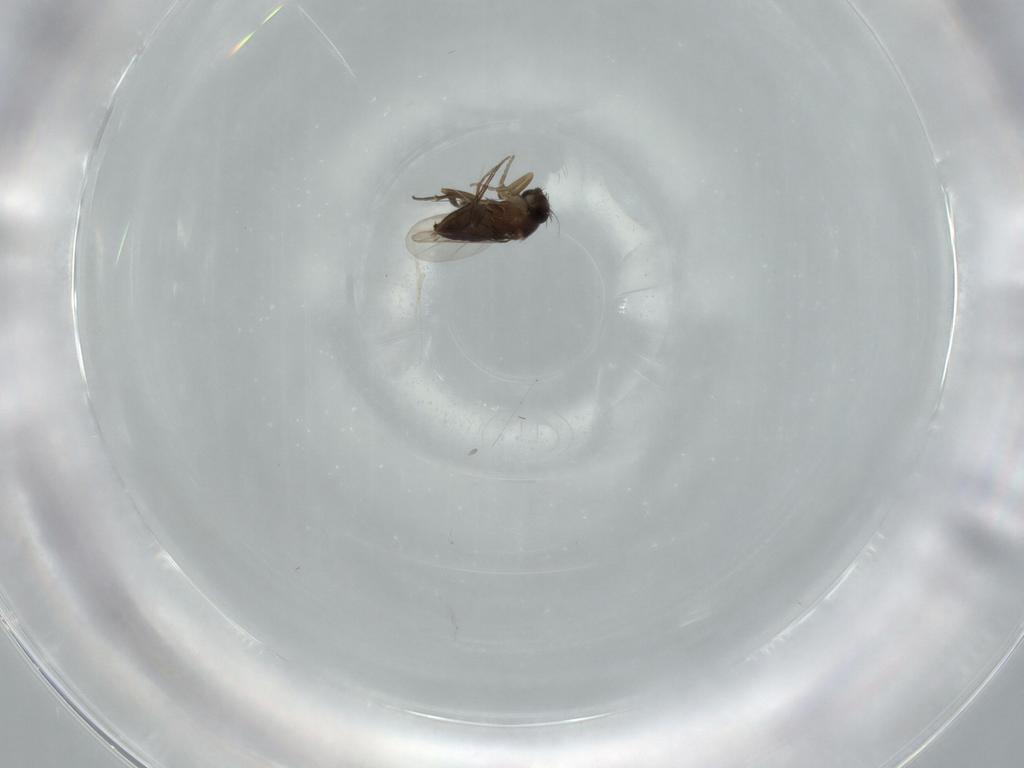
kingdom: Animalia
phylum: Arthropoda
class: Insecta
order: Diptera
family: Phoridae
